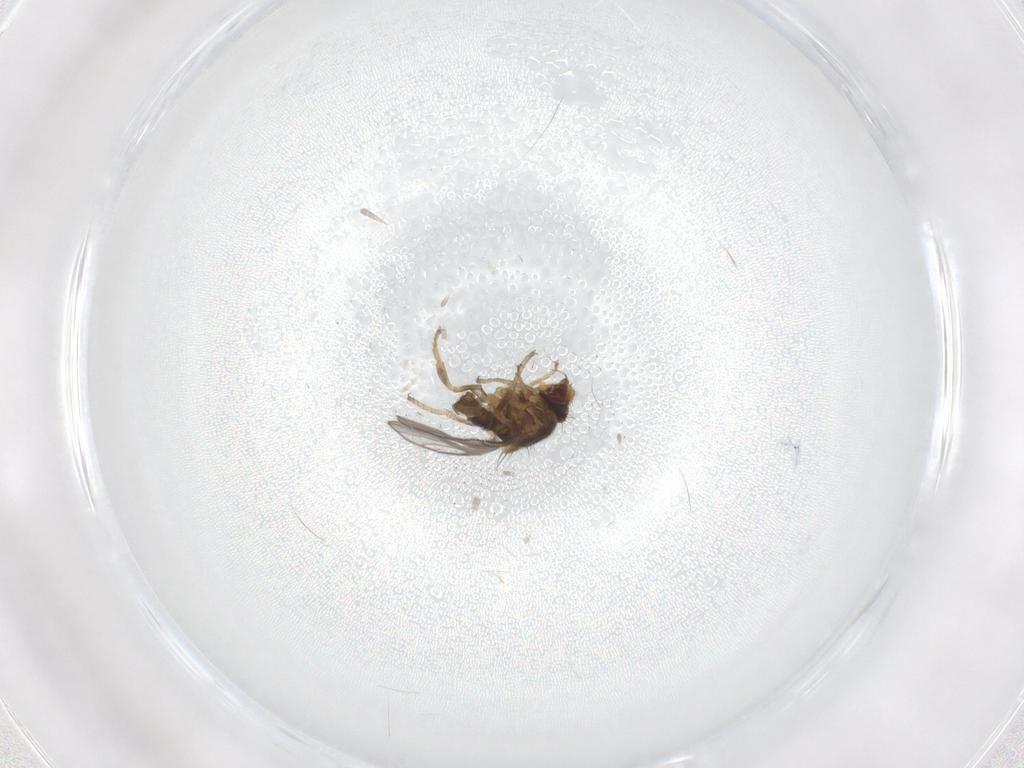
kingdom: Animalia
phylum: Arthropoda
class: Insecta
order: Diptera
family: Chloropidae
